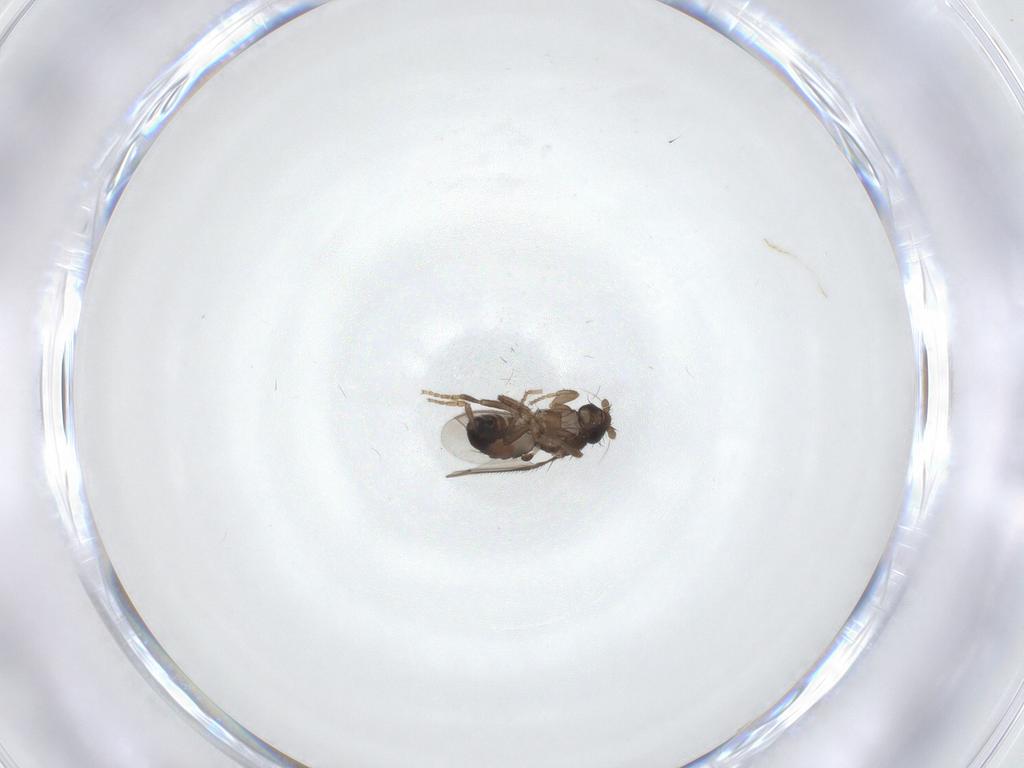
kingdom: Animalia
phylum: Arthropoda
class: Insecta
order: Diptera
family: Sphaeroceridae
